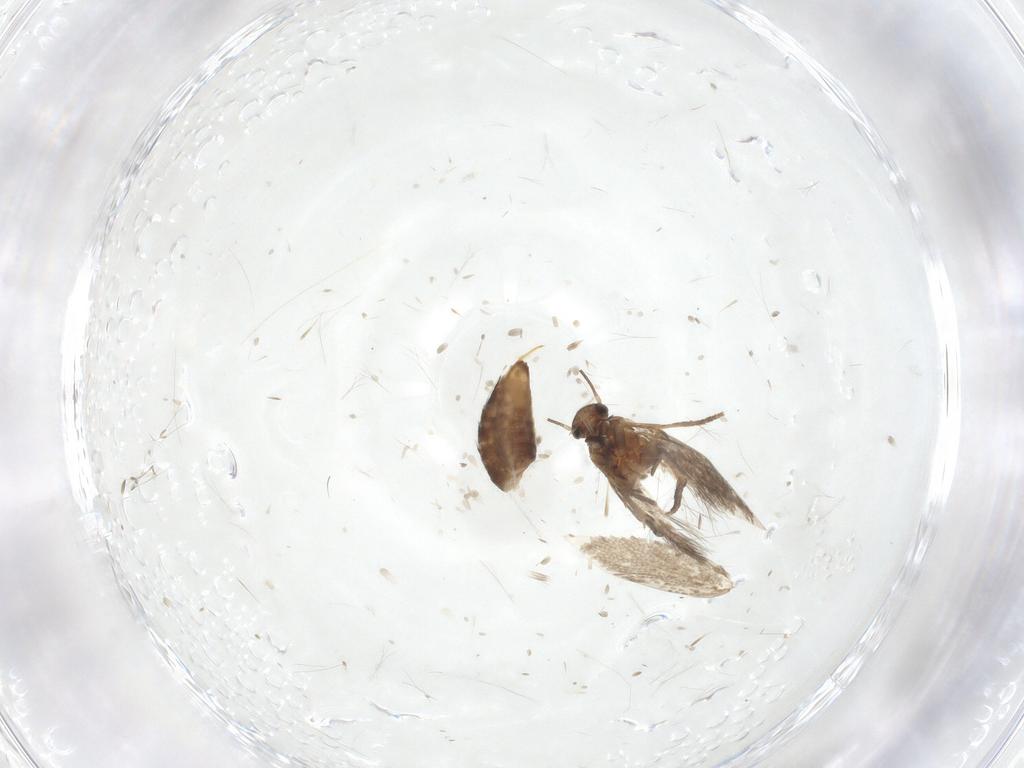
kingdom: Animalia
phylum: Arthropoda
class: Insecta
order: Lepidoptera
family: Heliozelidae
